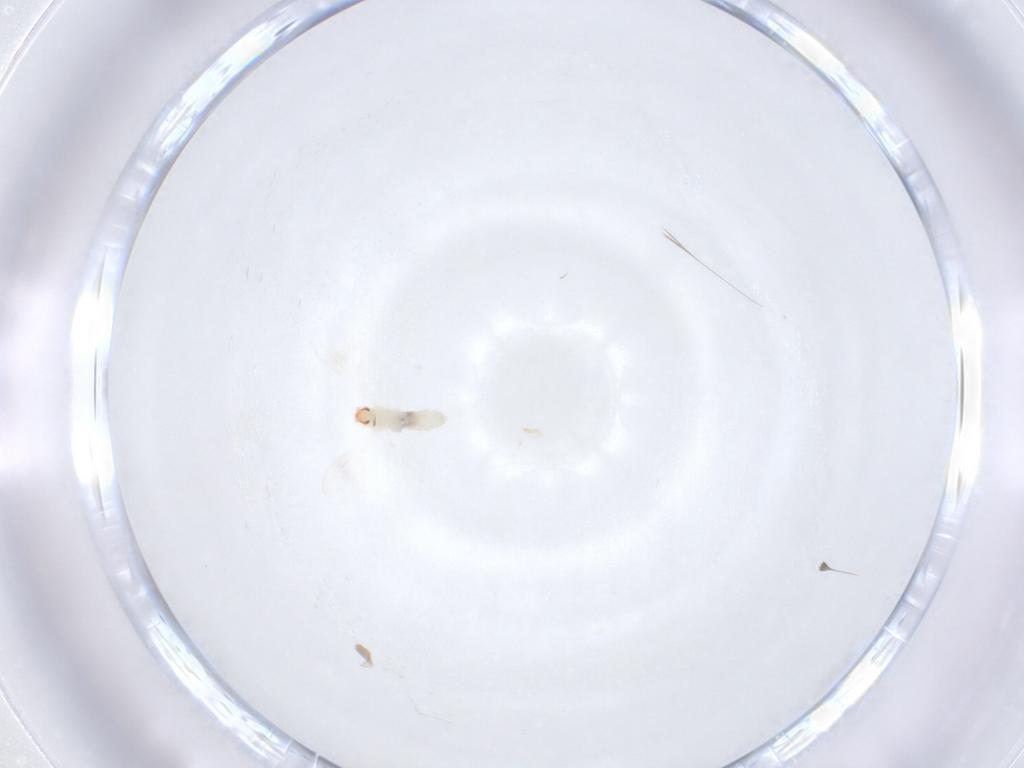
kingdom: Animalia
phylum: Arthropoda
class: Insecta
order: Diptera
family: Cecidomyiidae
